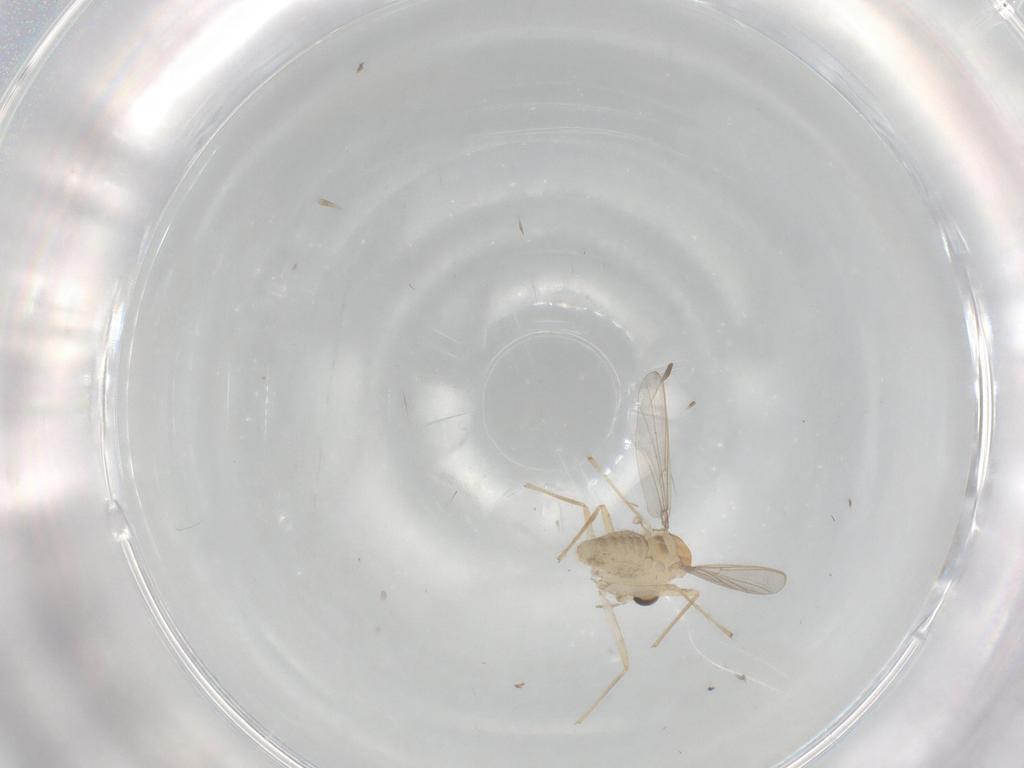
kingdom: Animalia
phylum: Arthropoda
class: Insecta
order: Diptera
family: Chironomidae
